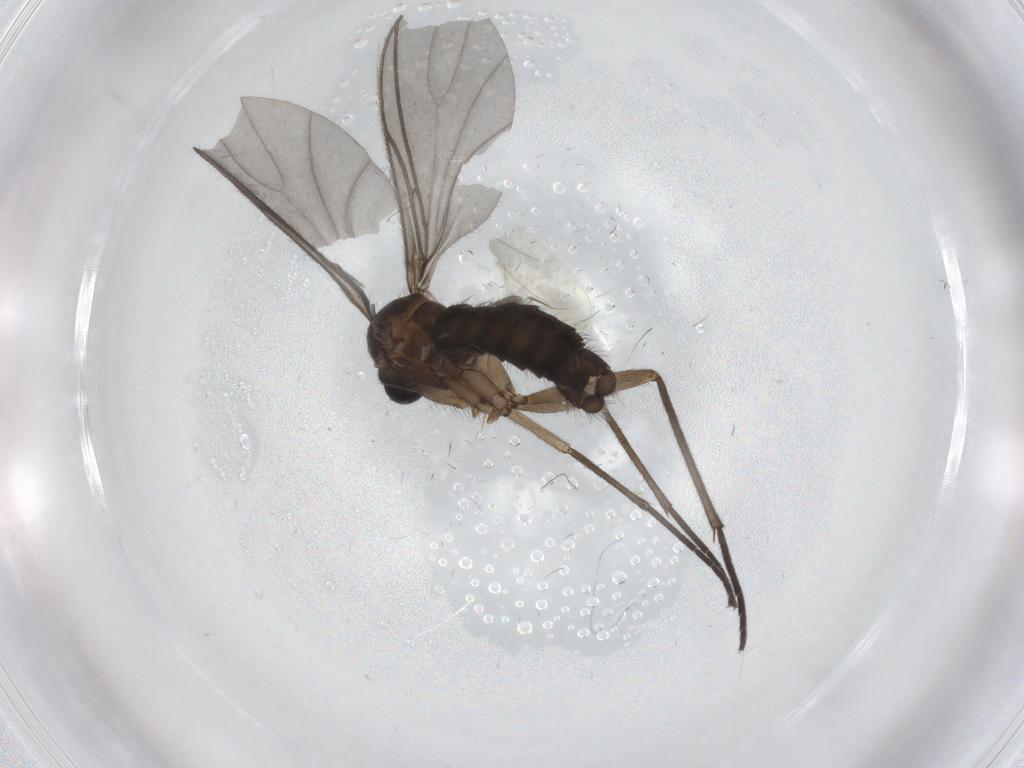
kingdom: Animalia
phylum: Arthropoda
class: Insecta
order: Diptera
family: Sciaridae
